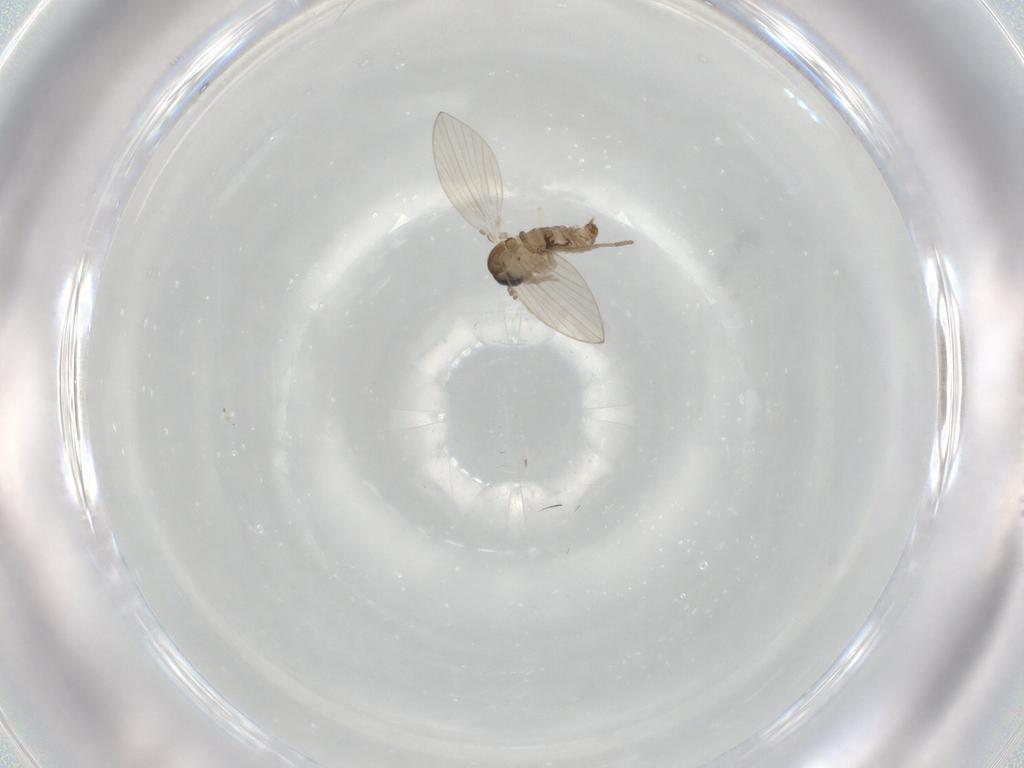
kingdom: Animalia
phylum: Arthropoda
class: Insecta
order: Diptera
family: Psychodidae
